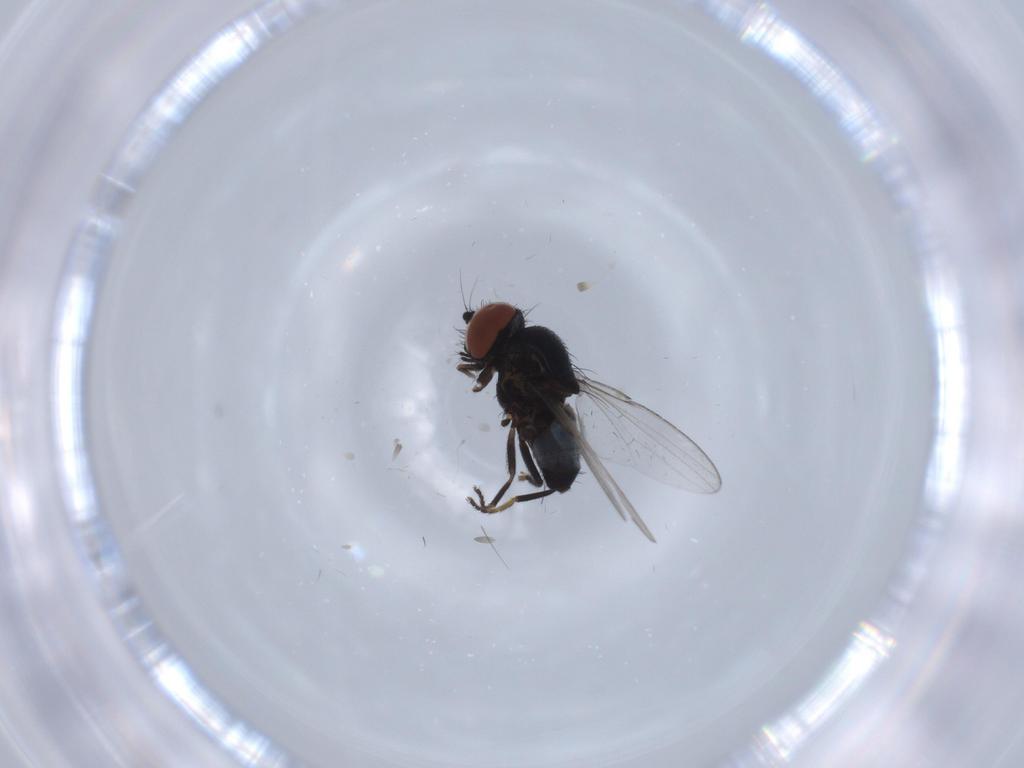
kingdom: Animalia
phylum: Arthropoda
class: Insecta
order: Diptera
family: Milichiidae
